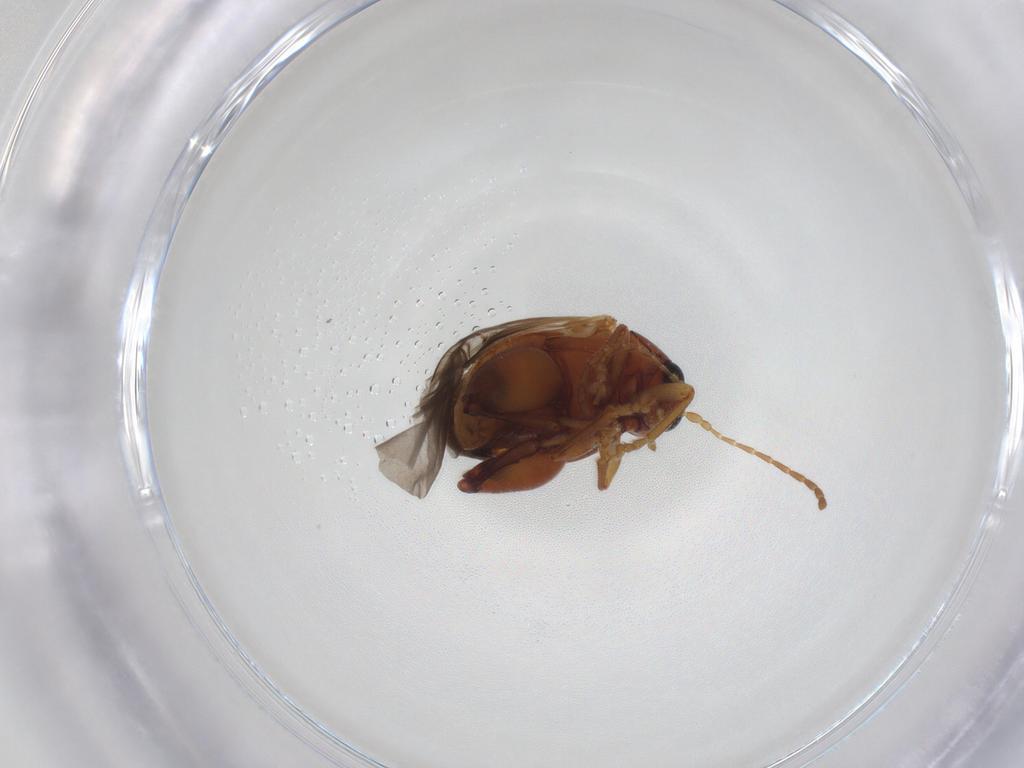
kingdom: Animalia
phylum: Arthropoda
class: Insecta
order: Coleoptera
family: Chrysomelidae
